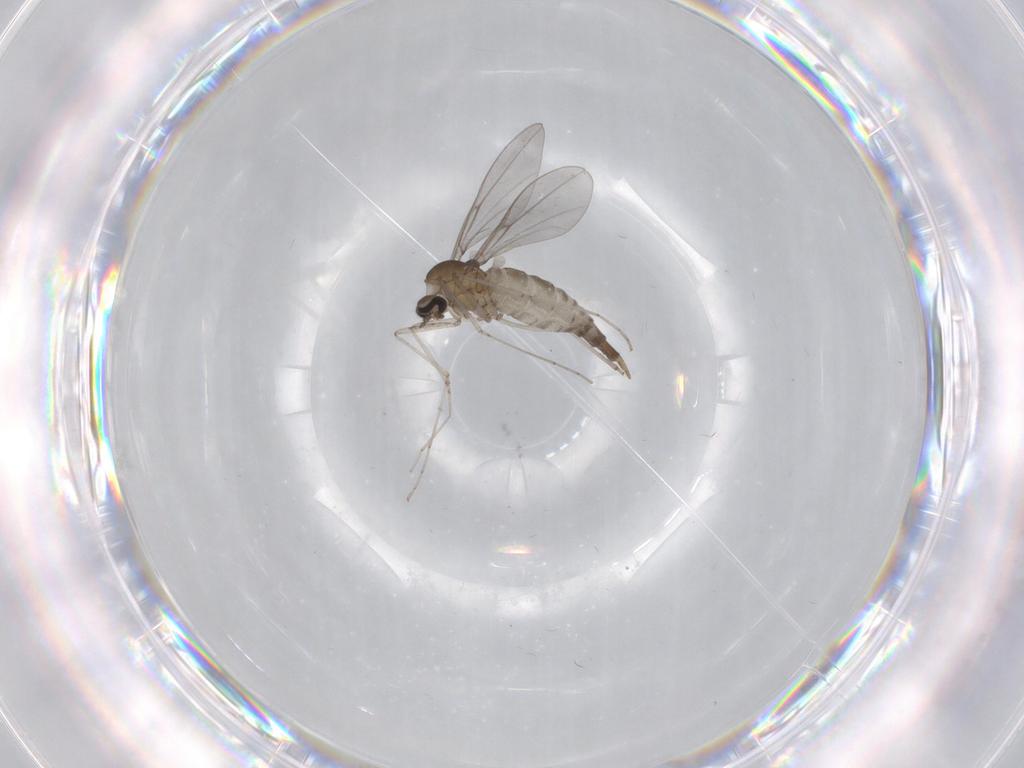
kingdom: Animalia
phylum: Arthropoda
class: Insecta
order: Diptera
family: Cecidomyiidae
